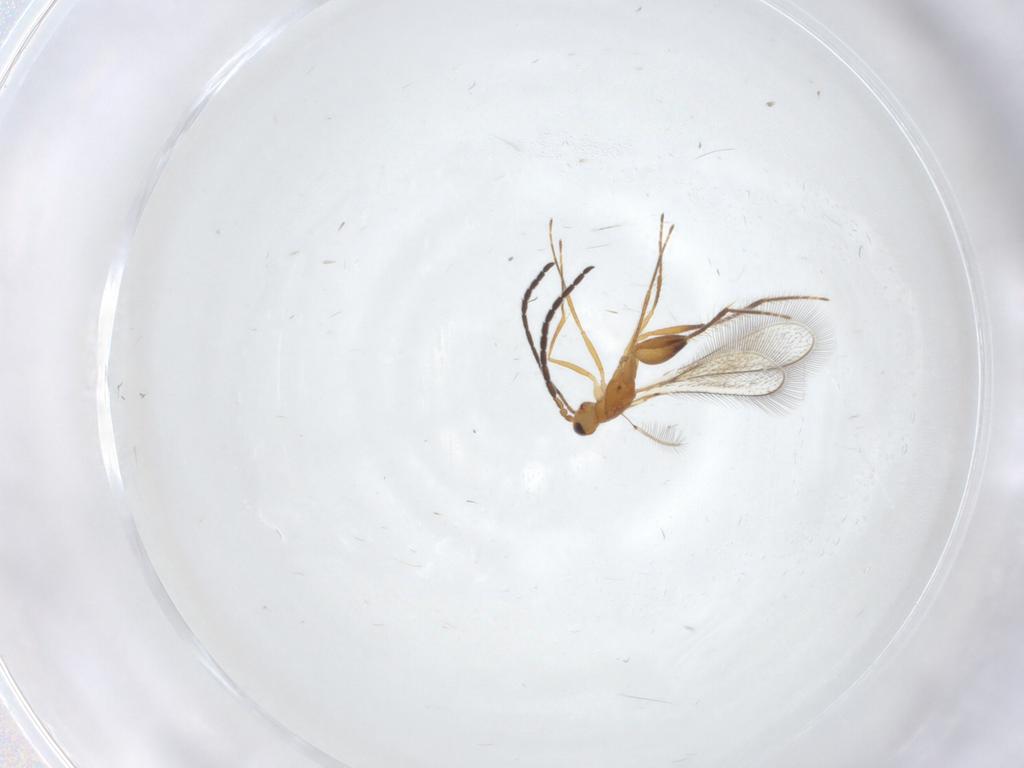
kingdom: Animalia
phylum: Arthropoda
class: Insecta
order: Hymenoptera
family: Mymaridae
